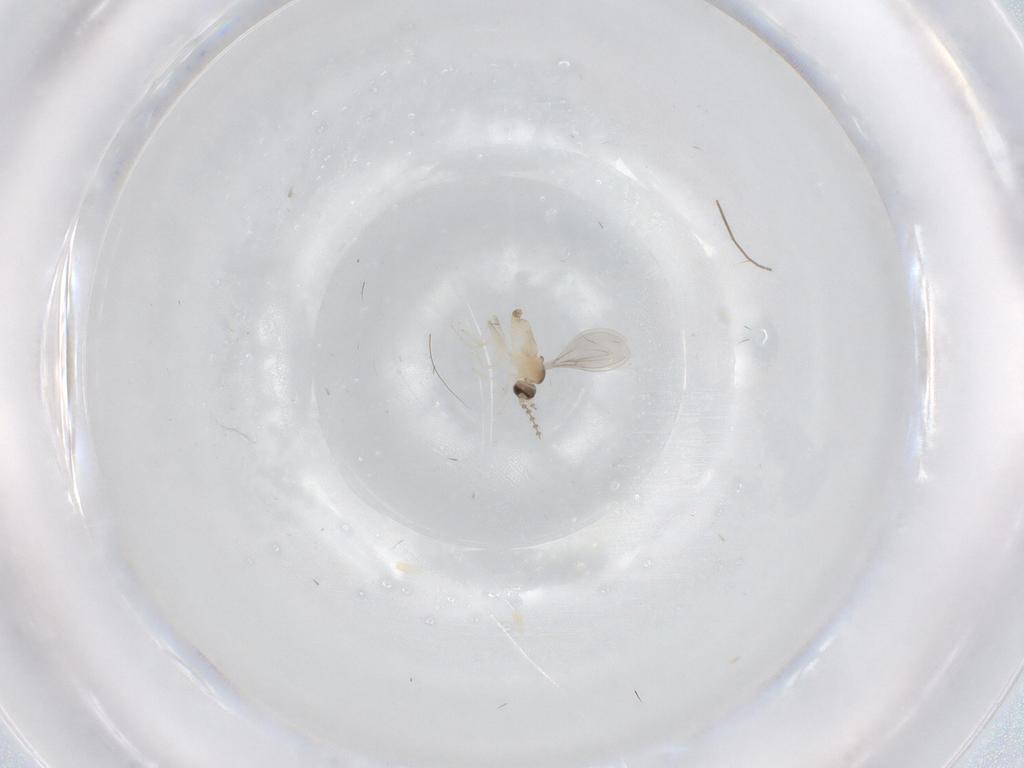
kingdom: Animalia
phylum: Arthropoda
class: Insecta
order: Diptera
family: Cecidomyiidae
